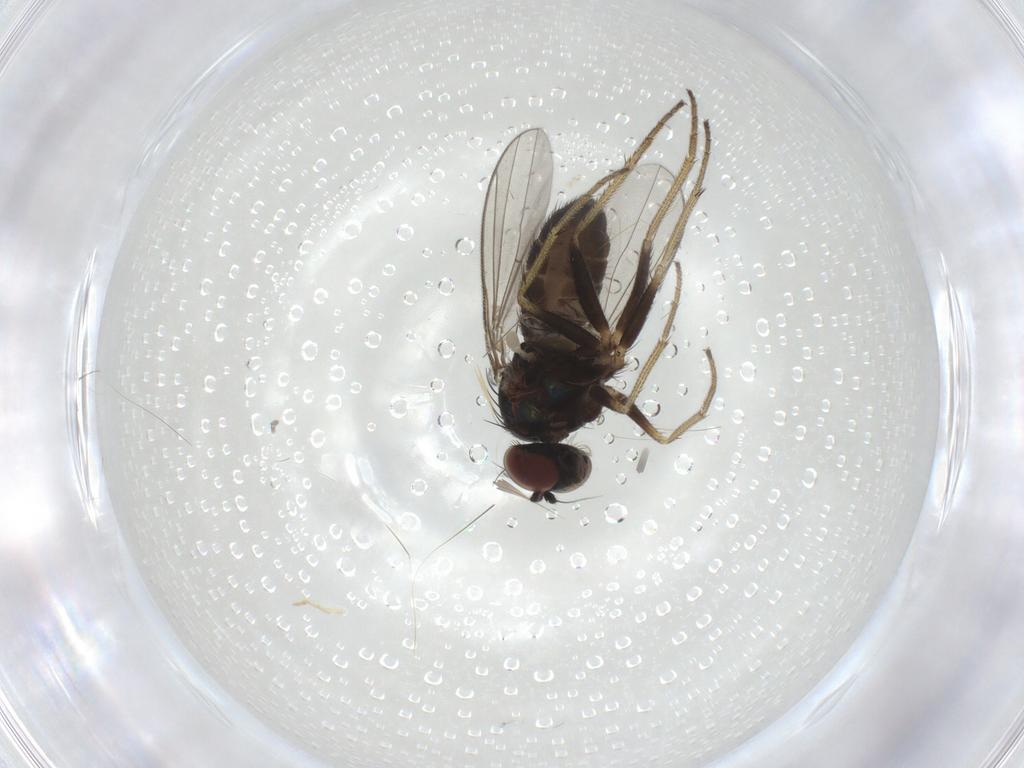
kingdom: Animalia
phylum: Arthropoda
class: Insecta
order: Diptera
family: Dolichopodidae
